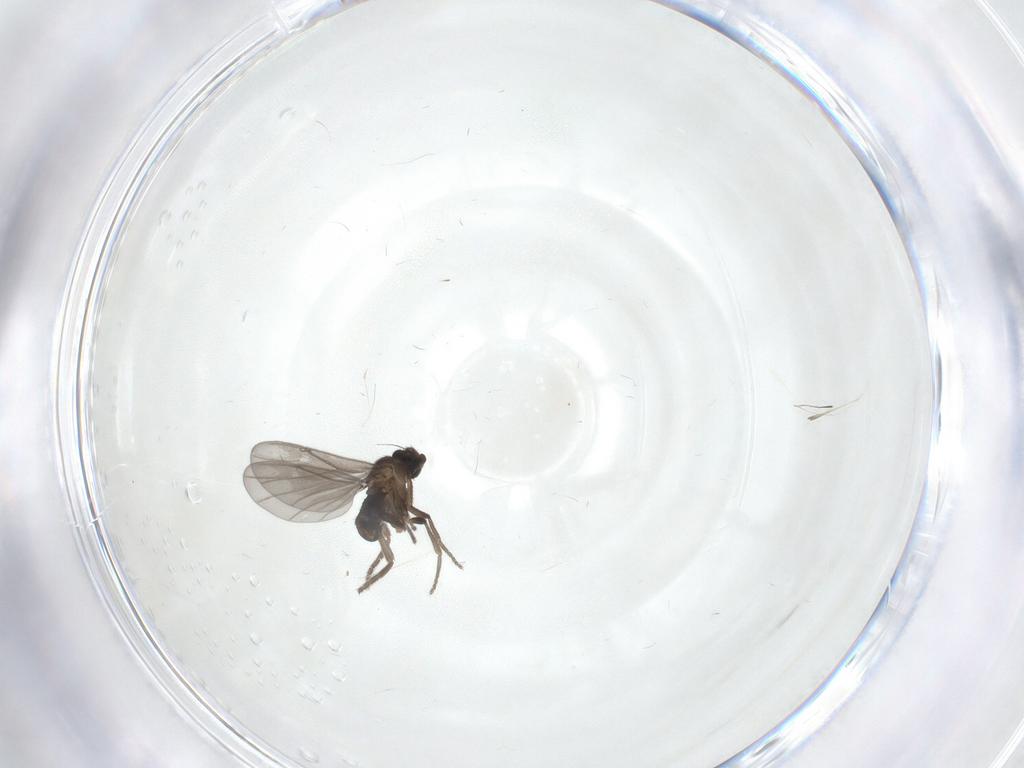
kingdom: Animalia
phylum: Arthropoda
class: Insecta
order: Diptera
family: Phoridae
